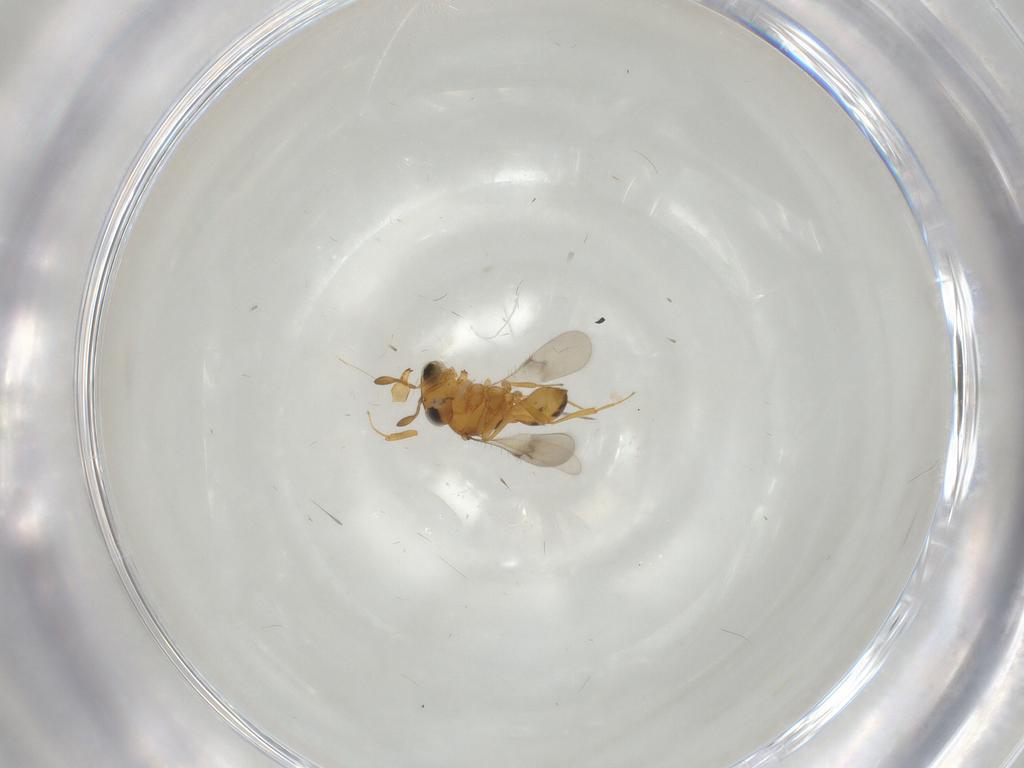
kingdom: Animalia
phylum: Arthropoda
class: Insecta
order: Hymenoptera
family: Scelionidae
